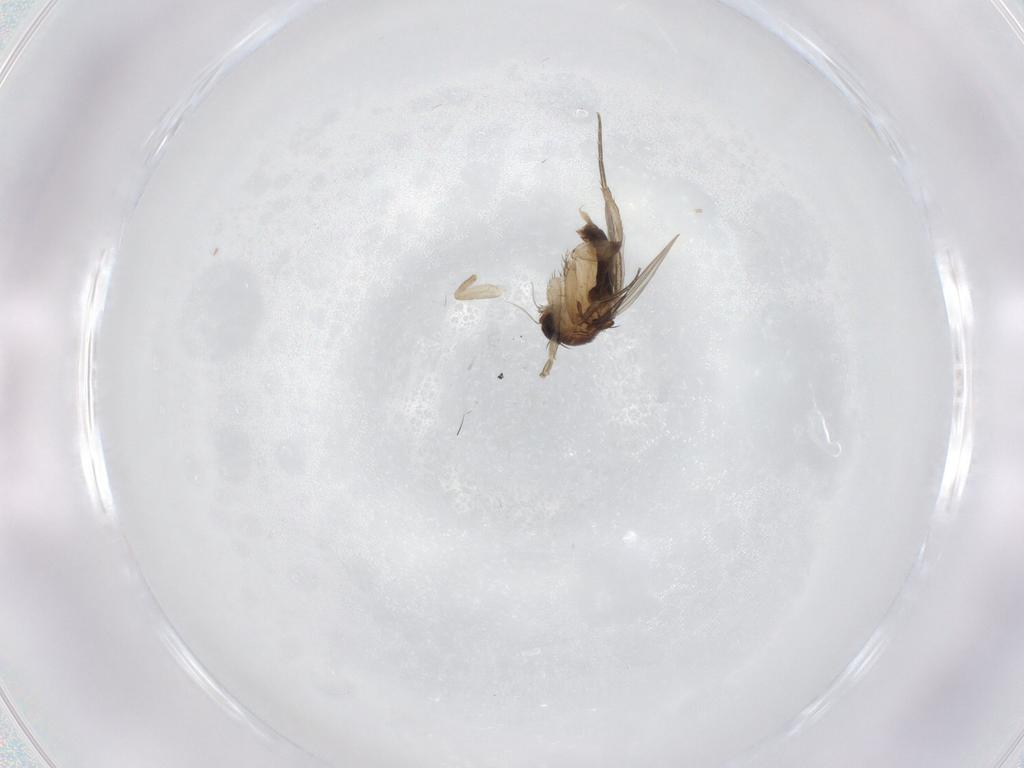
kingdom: Animalia
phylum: Arthropoda
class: Insecta
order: Diptera
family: Phoridae
